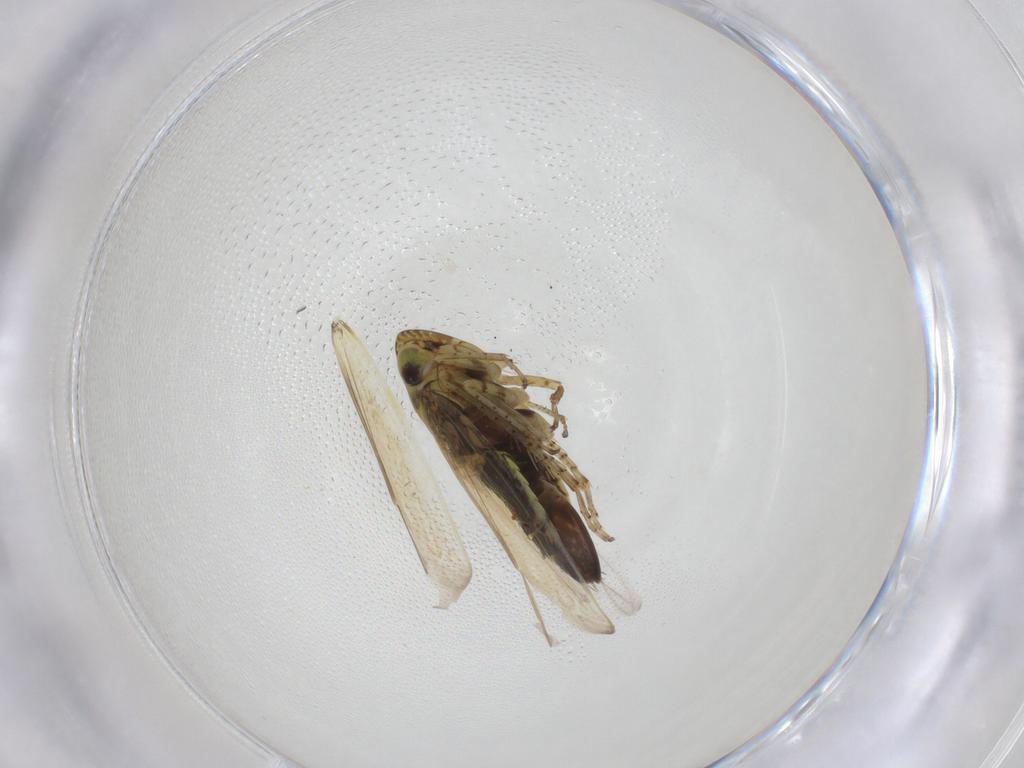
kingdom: Animalia
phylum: Arthropoda
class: Insecta
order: Hemiptera
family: Cicadellidae
